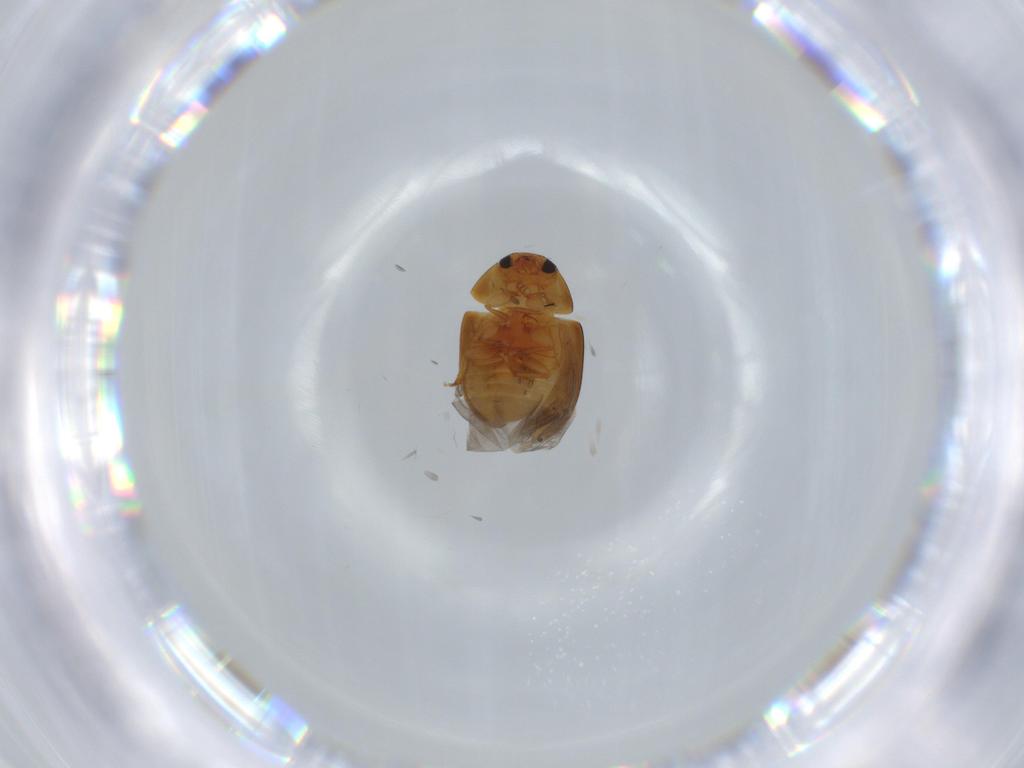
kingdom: Animalia
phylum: Arthropoda
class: Insecta
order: Coleoptera
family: Phalacridae
